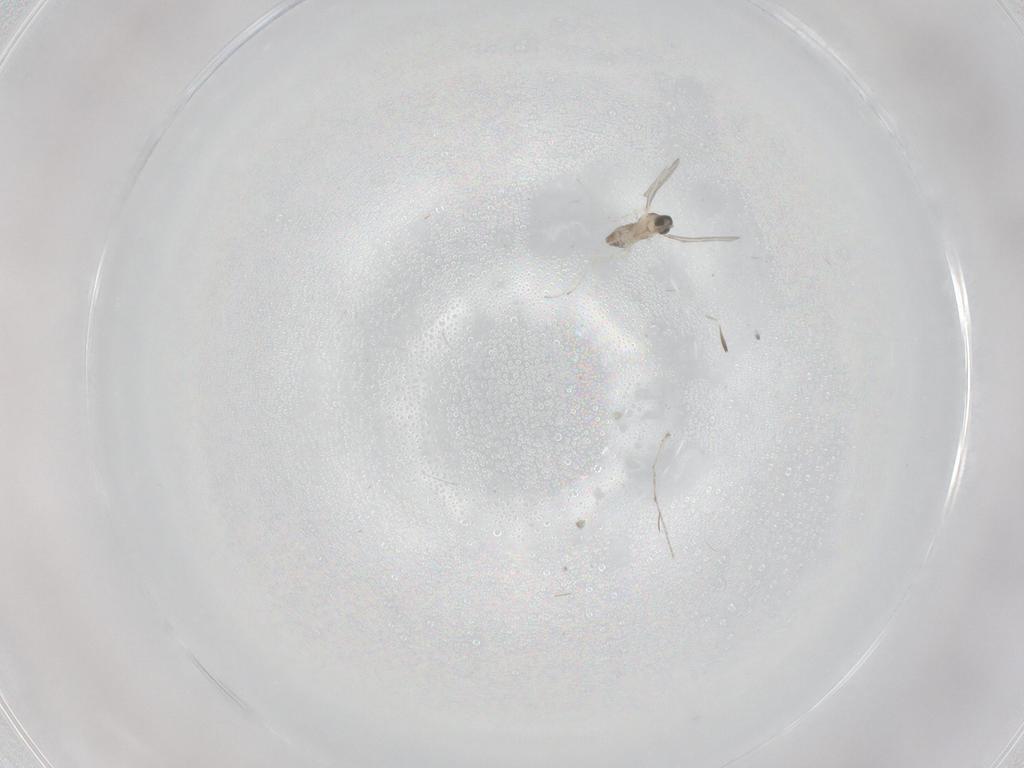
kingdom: Animalia
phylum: Arthropoda
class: Insecta
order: Diptera
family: Cecidomyiidae
